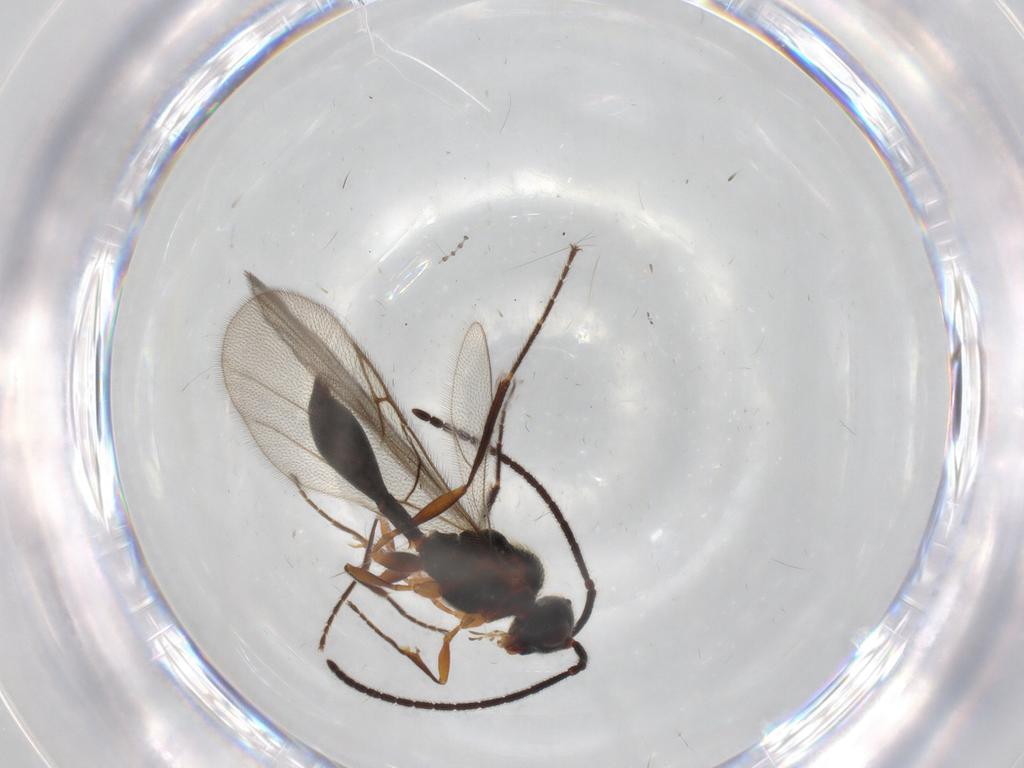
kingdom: Animalia
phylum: Arthropoda
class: Insecta
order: Hymenoptera
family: Diapriidae
